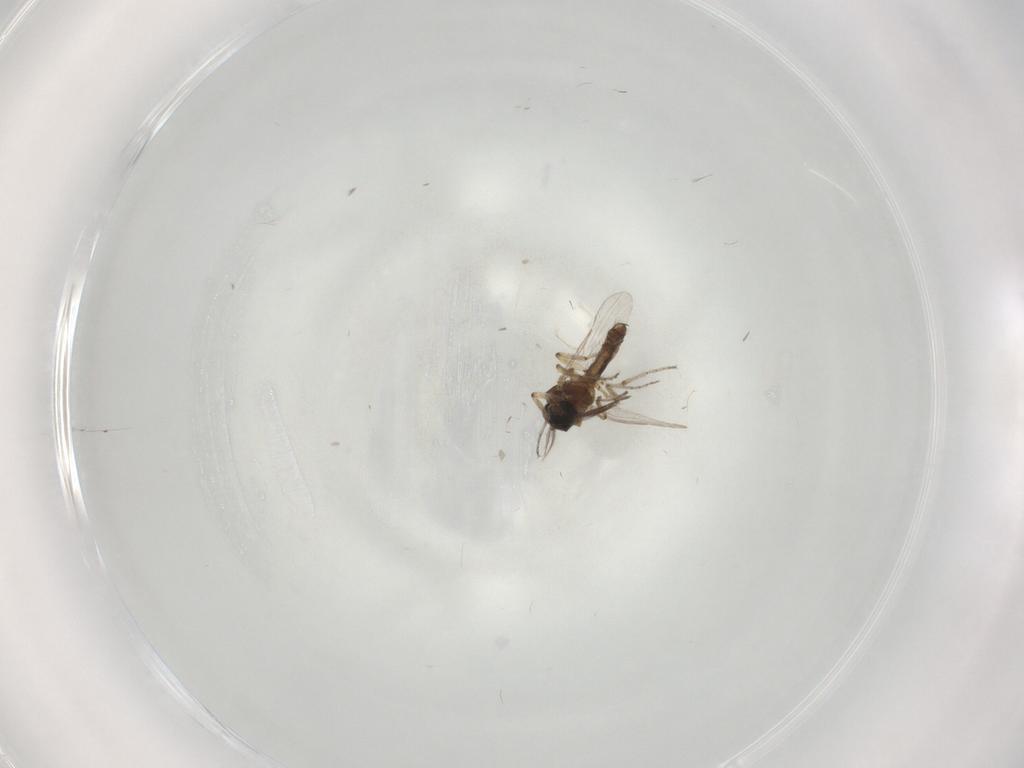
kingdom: Animalia
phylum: Arthropoda
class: Insecta
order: Diptera
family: Ceratopogonidae
